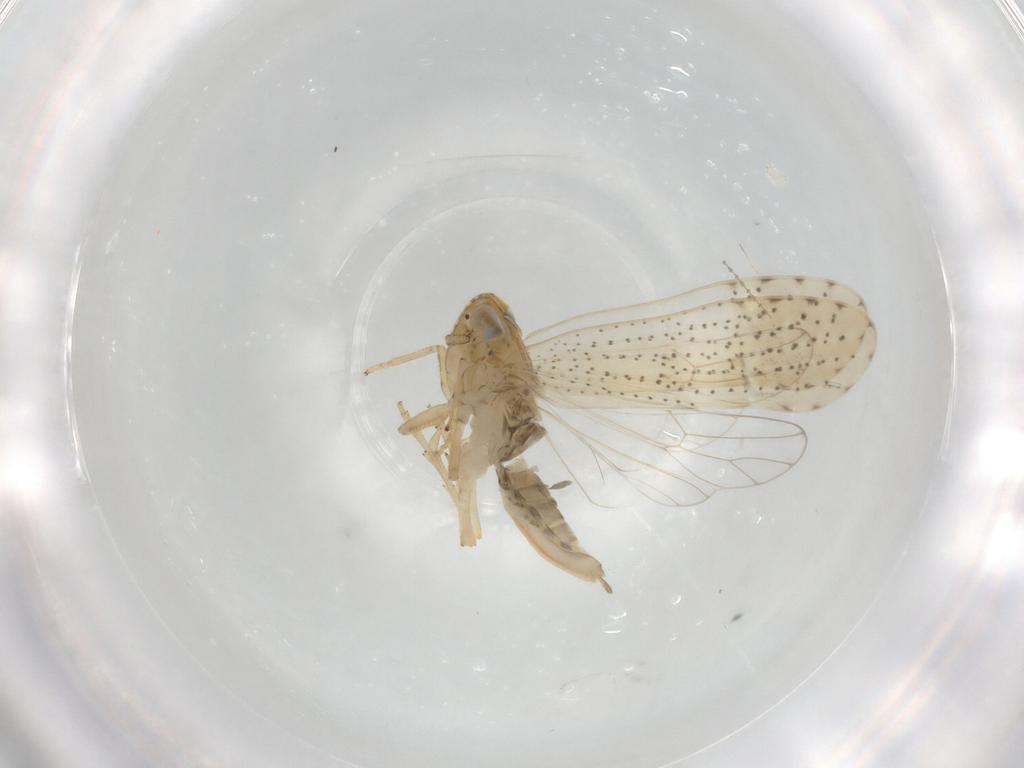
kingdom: Animalia
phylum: Arthropoda
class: Insecta
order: Hemiptera
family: Delphacidae
